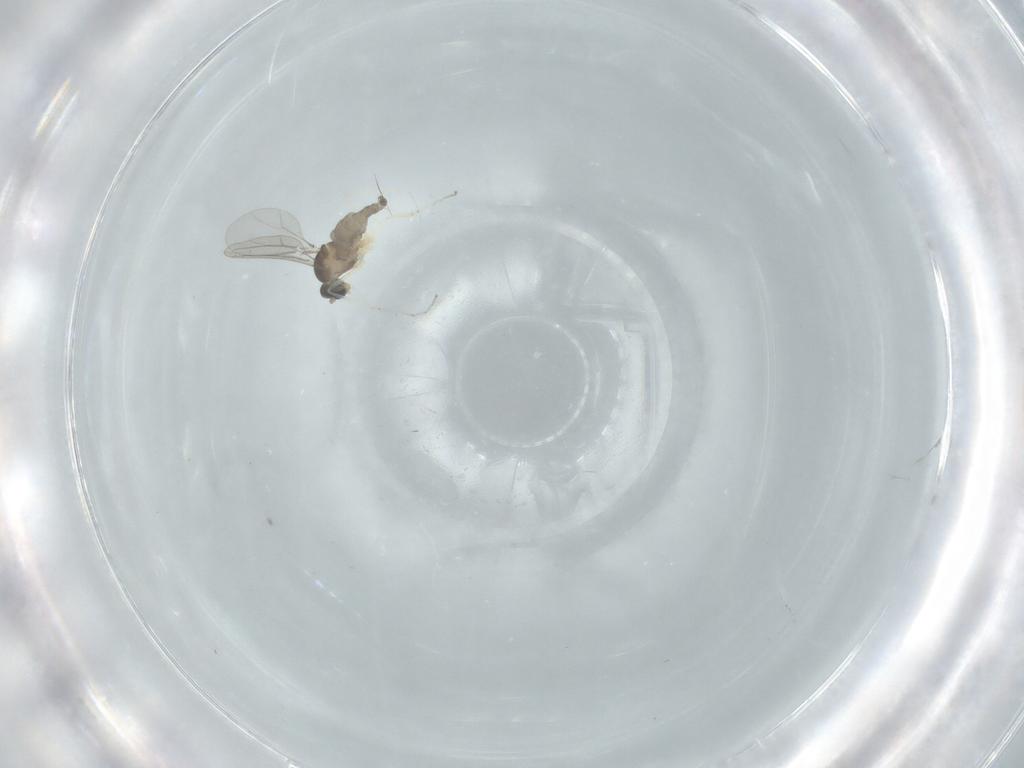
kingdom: Animalia
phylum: Arthropoda
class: Insecta
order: Diptera
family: Cecidomyiidae
